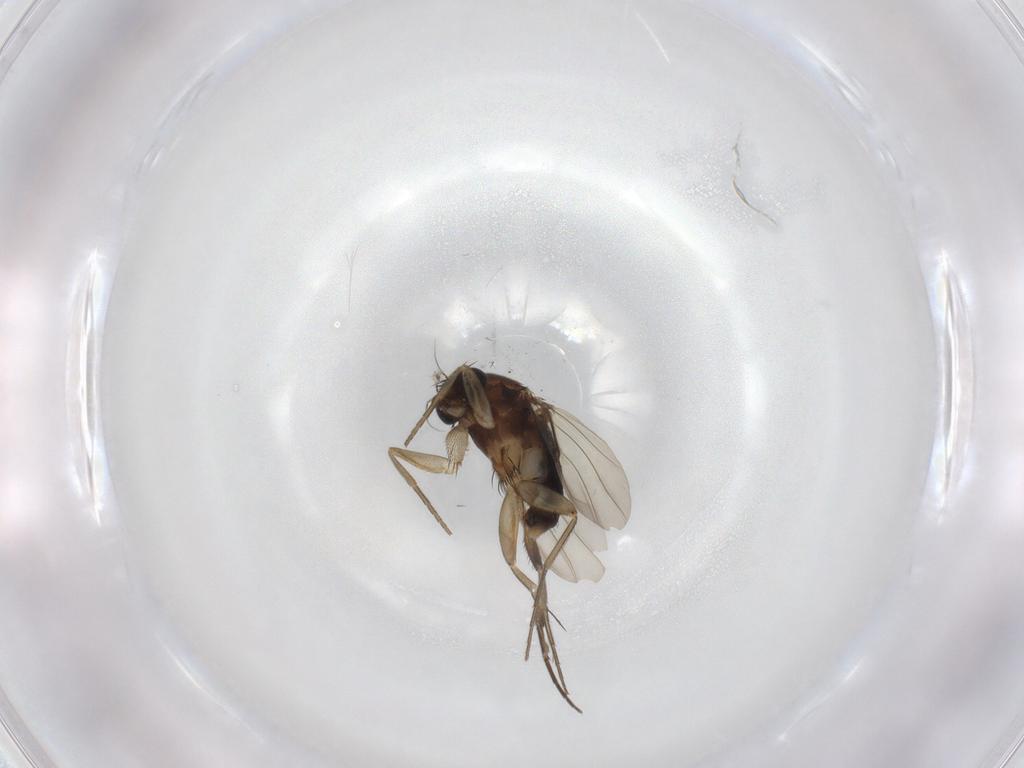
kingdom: Animalia
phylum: Arthropoda
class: Insecta
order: Diptera
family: Phoridae
